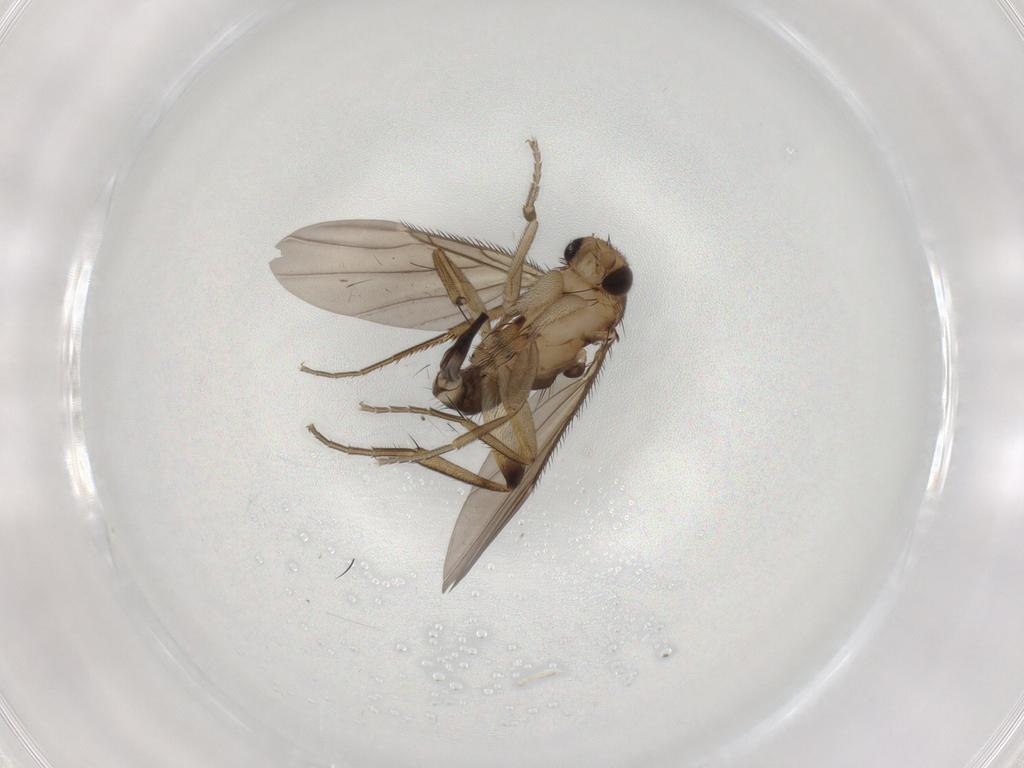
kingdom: Animalia
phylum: Arthropoda
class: Insecta
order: Diptera
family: Phoridae
